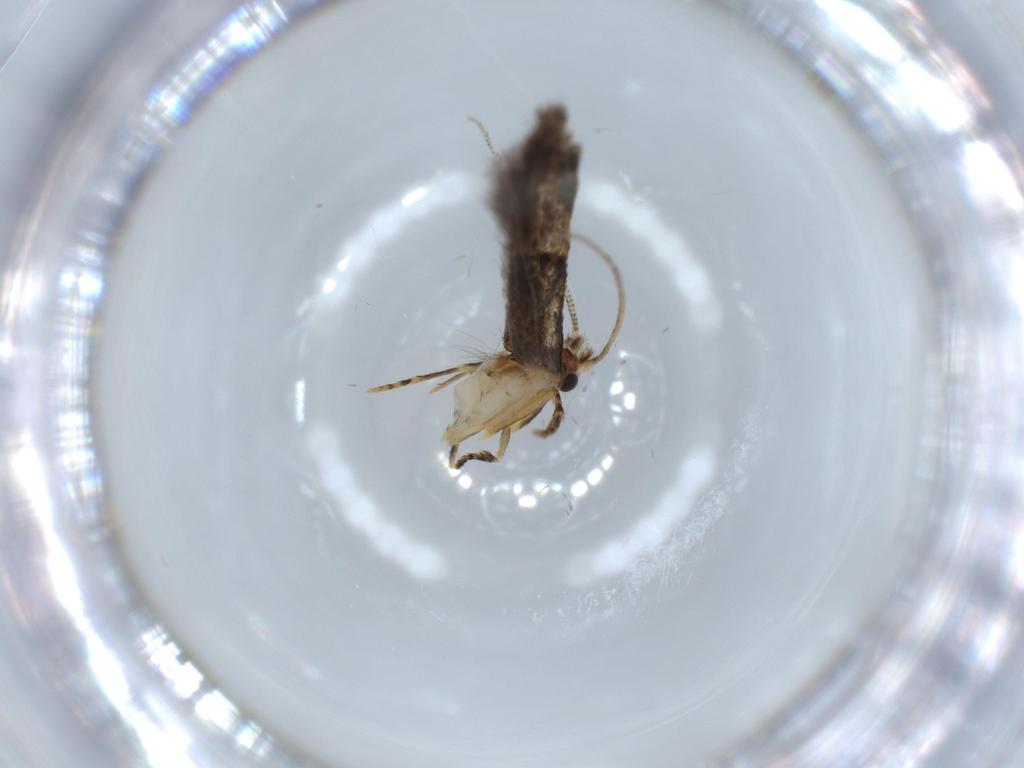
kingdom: Animalia
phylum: Arthropoda
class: Insecta
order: Lepidoptera
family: Tineidae
